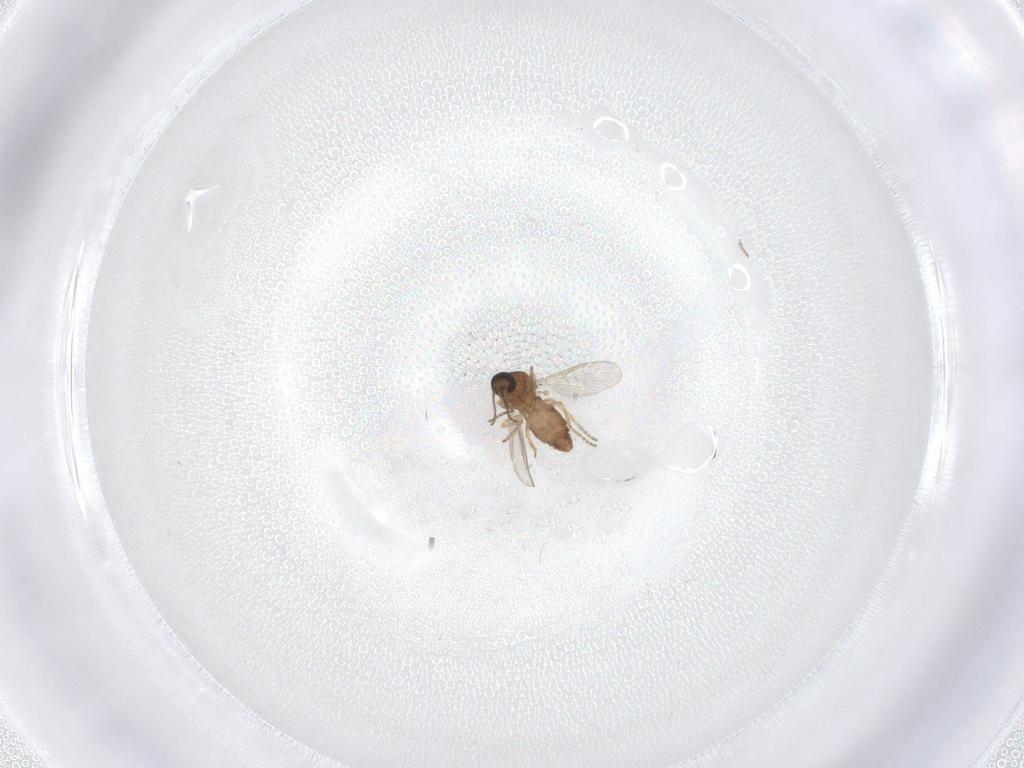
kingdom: Animalia
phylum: Arthropoda
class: Insecta
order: Diptera
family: Ceratopogonidae
